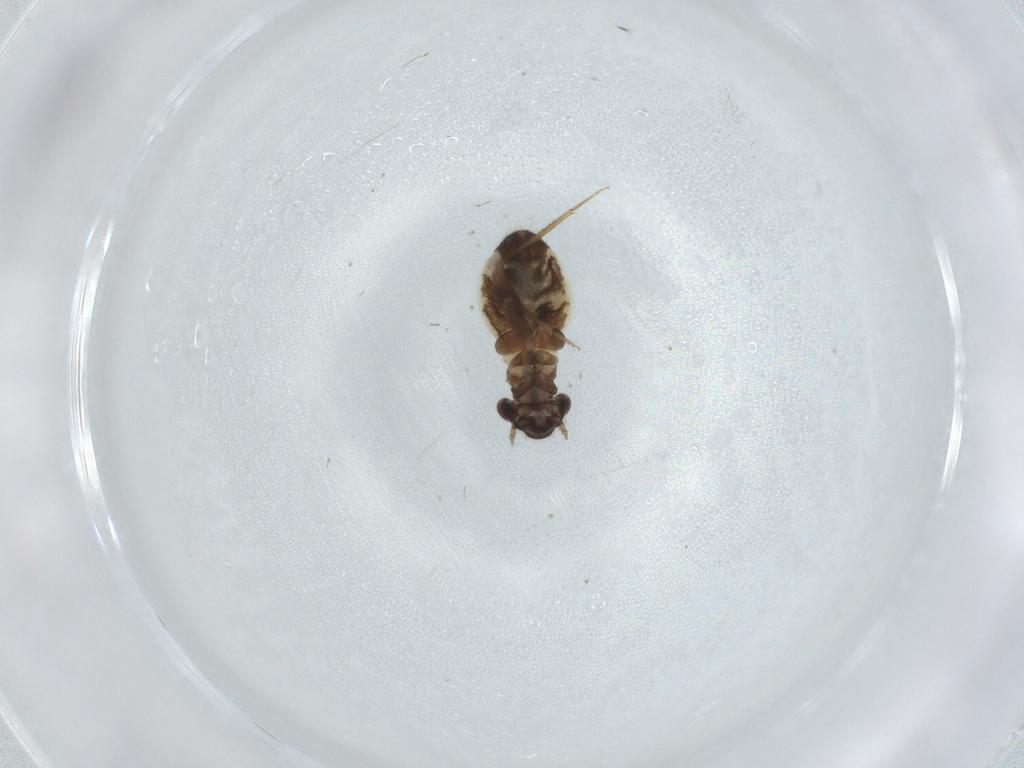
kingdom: Animalia
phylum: Arthropoda
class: Insecta
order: Psocodea
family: Lepidopsocidae
